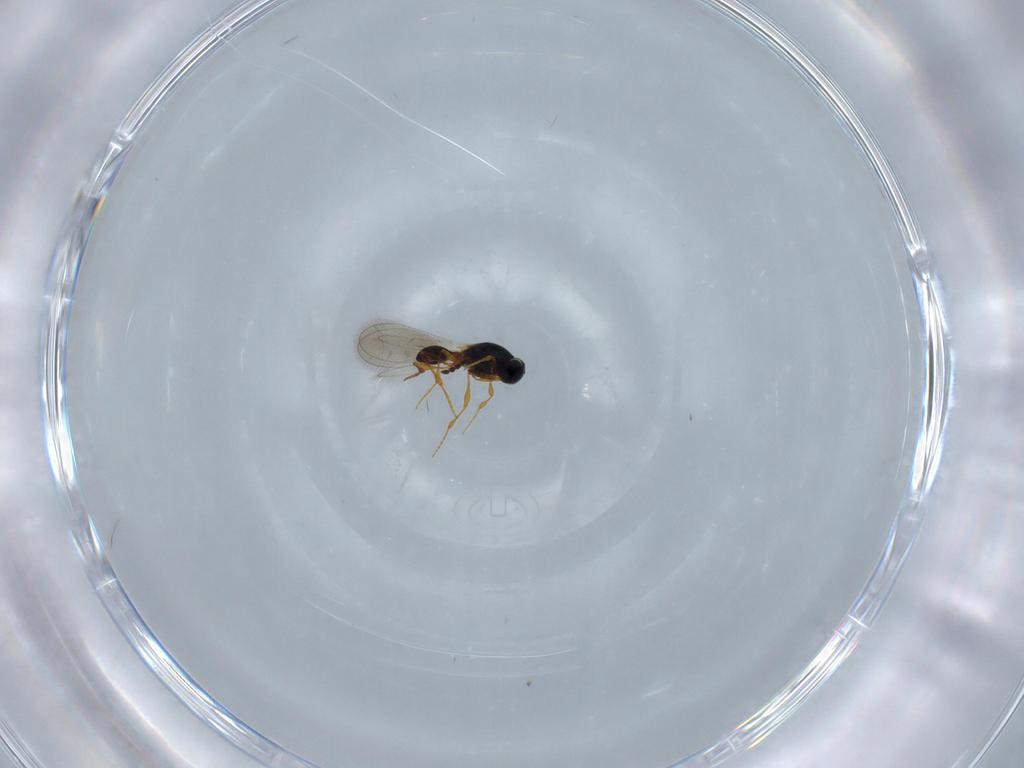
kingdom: Animalia
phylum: Arthropoda
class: Insecta
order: Hymenoptera
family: Platygastridae
